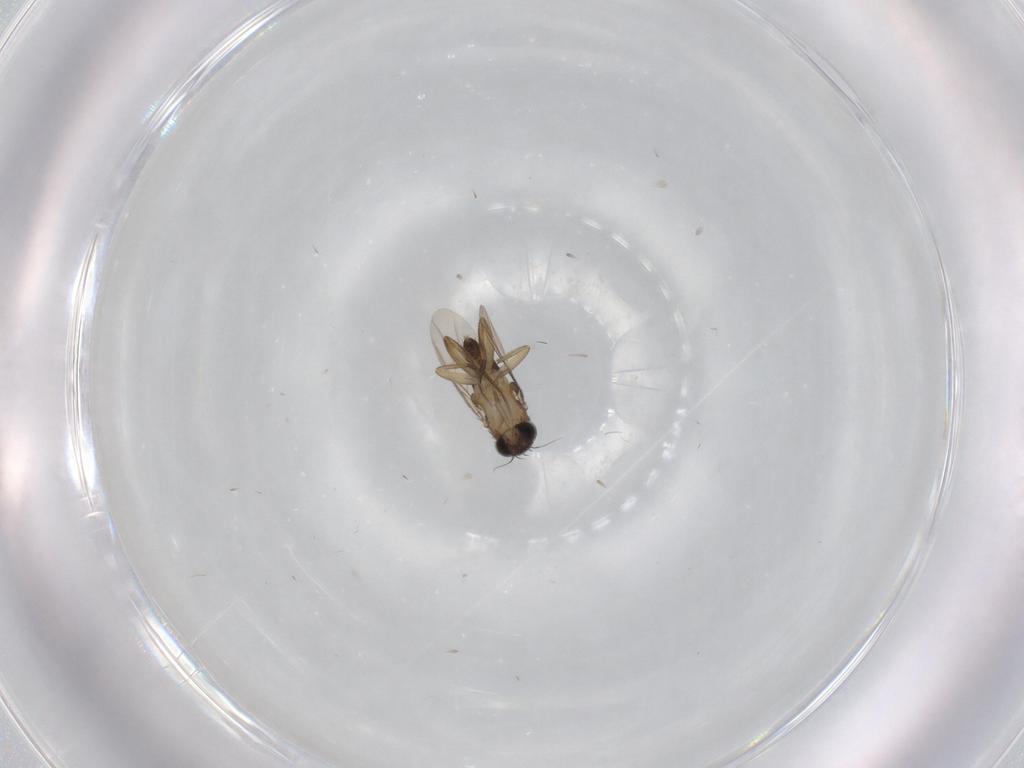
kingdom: Animalia
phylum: Arthropoda
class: Insecta
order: Diptera
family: Phoridae
